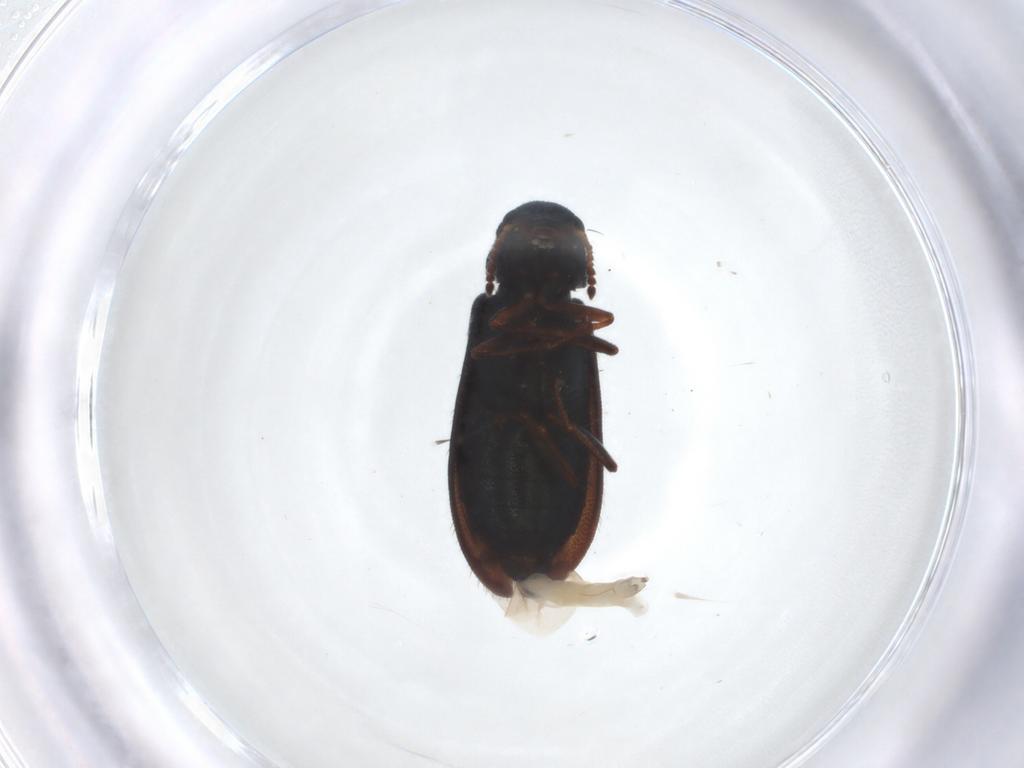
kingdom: Animalia
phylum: Arthropoda
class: Insecta
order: Coleoptera
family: Melyridae
